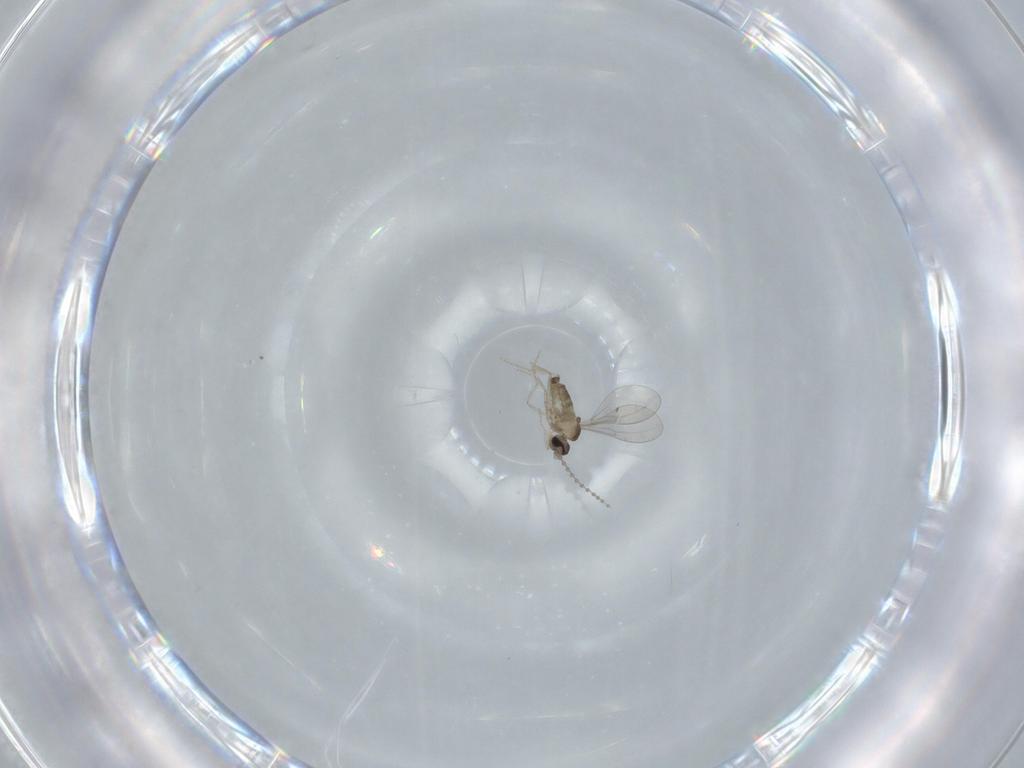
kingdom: Animalia
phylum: Arthropoda
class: Insecta
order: Diptera
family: Cecidomyiidae
